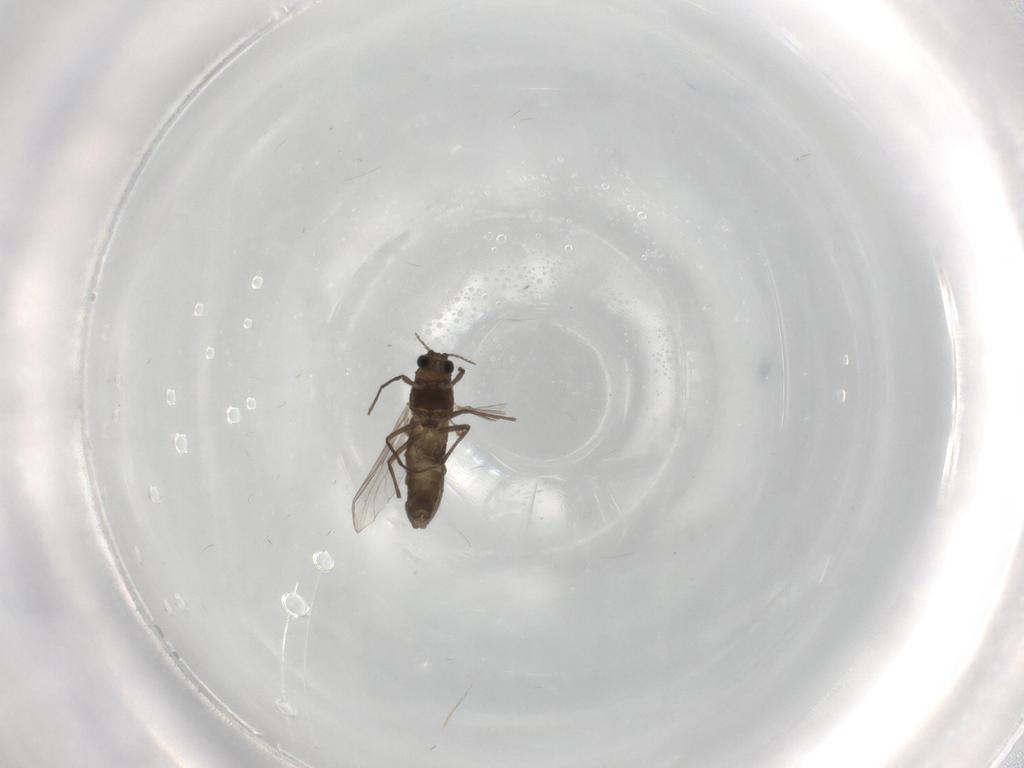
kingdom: Animalia
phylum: Arthropoda
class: Insecta
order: Diptera
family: Chironomidae
